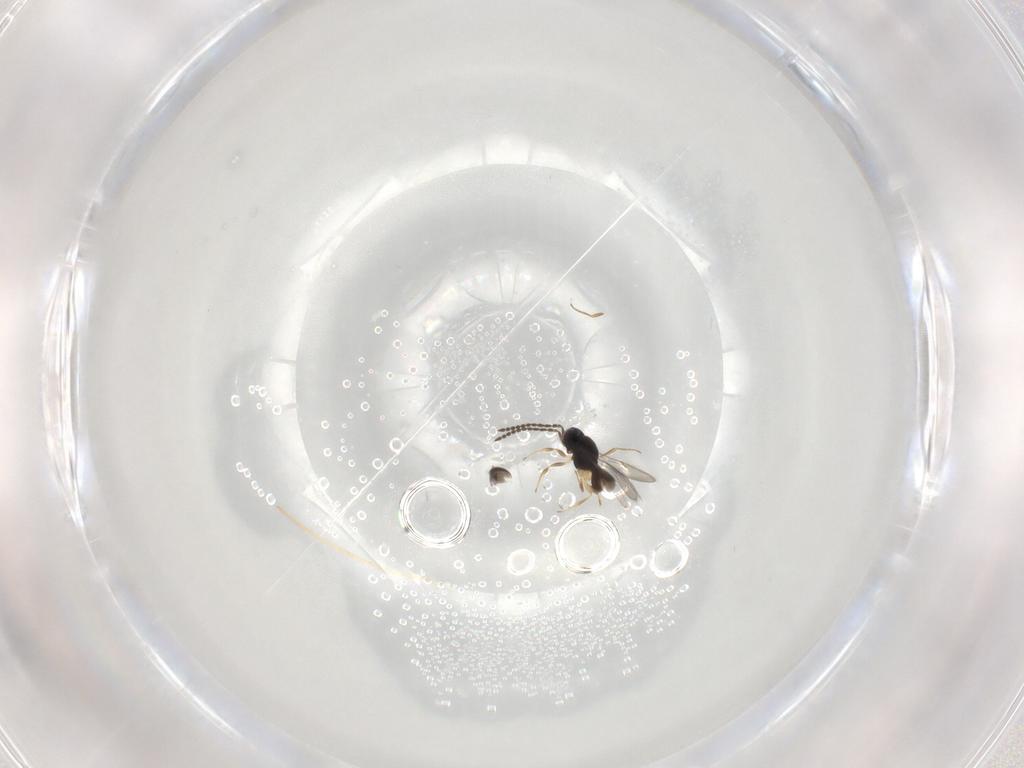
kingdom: Animalia
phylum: Arthropoda
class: Insecta
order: Hymenoptera
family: Scelionidae
